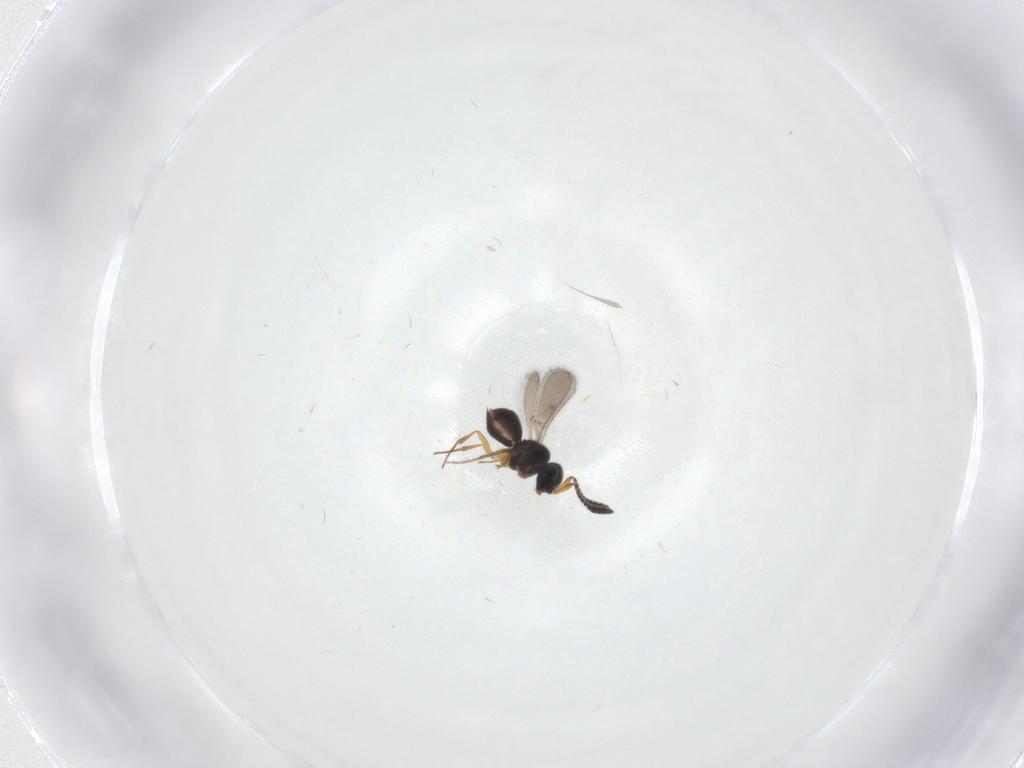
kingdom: Animalia
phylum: Arthropoda
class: Insecta
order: Hymenoptera
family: Scelionidae
